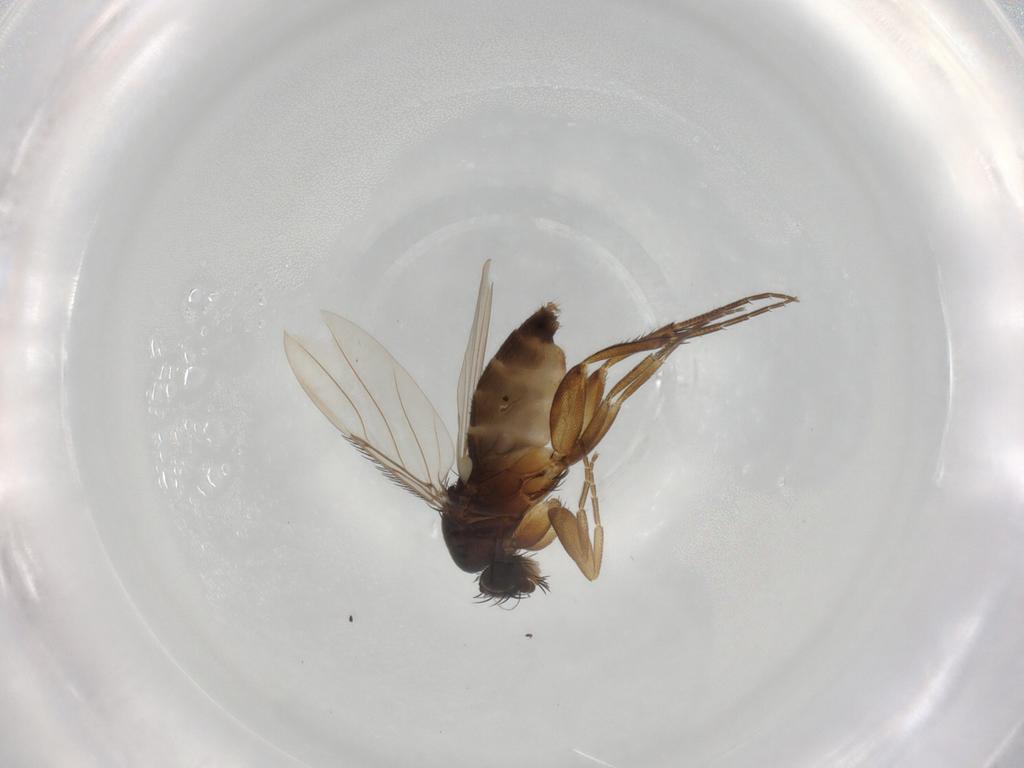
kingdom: Animalia
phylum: Arthropoda
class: Insecta
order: Diptera
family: Phoridae
